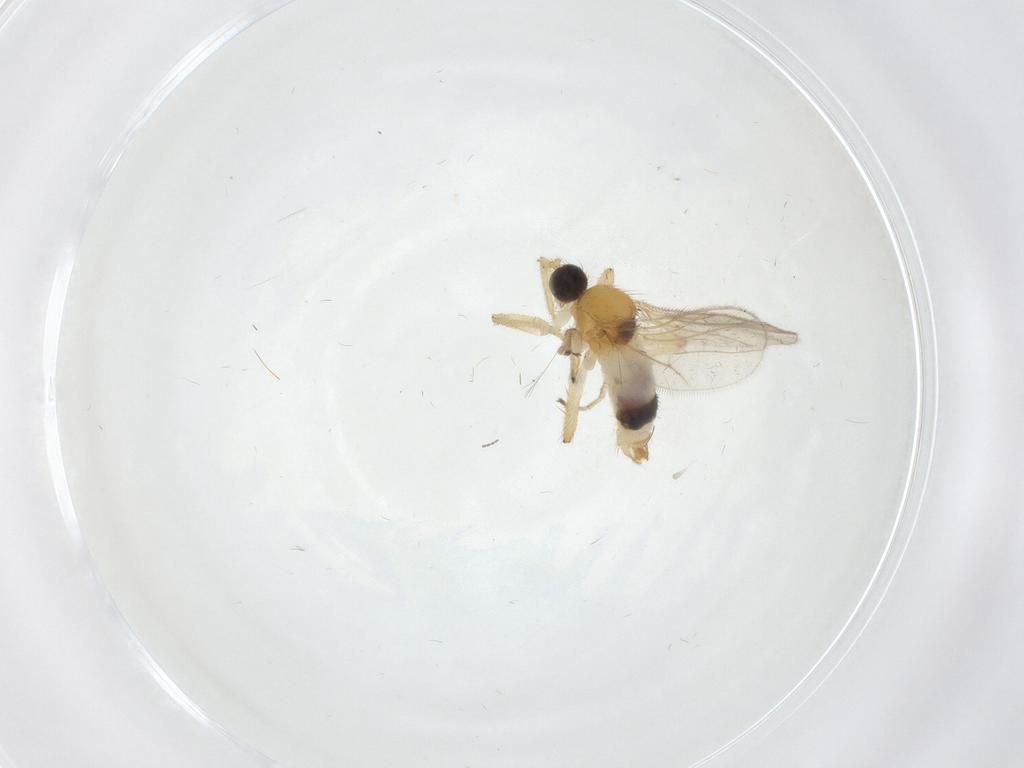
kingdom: Animalia
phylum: Arthropoda
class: Insecta
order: Diptera
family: Hybotidae
